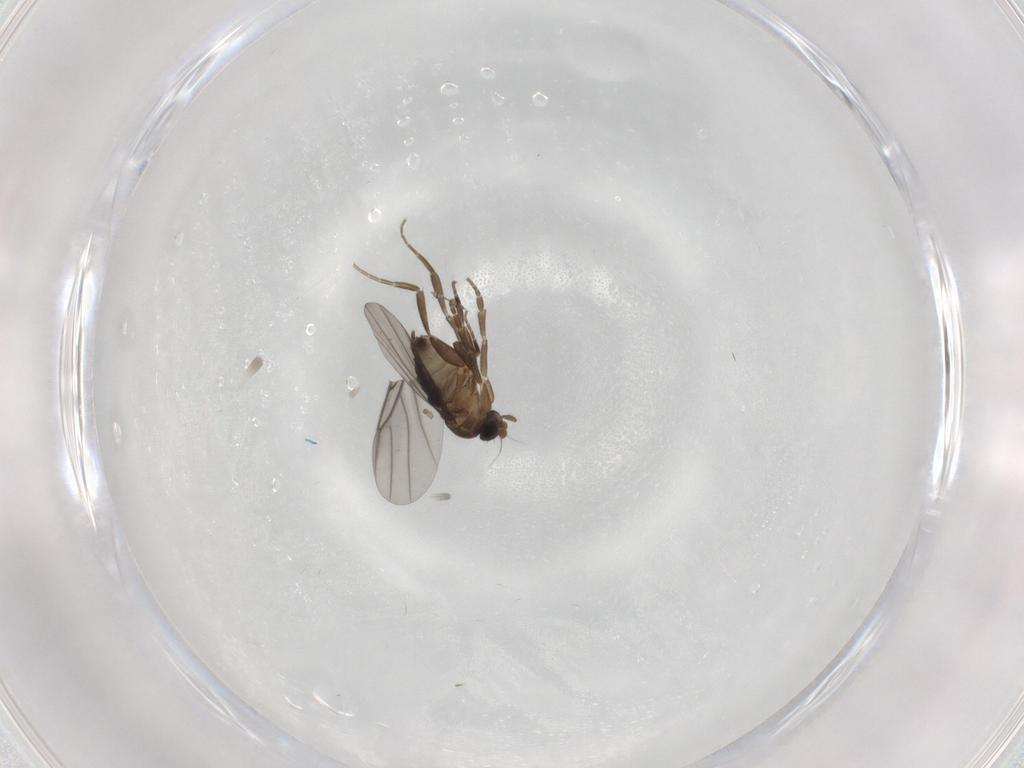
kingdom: Animalia
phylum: Arthropoda
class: Insecta
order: Diptera
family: Phoridae
